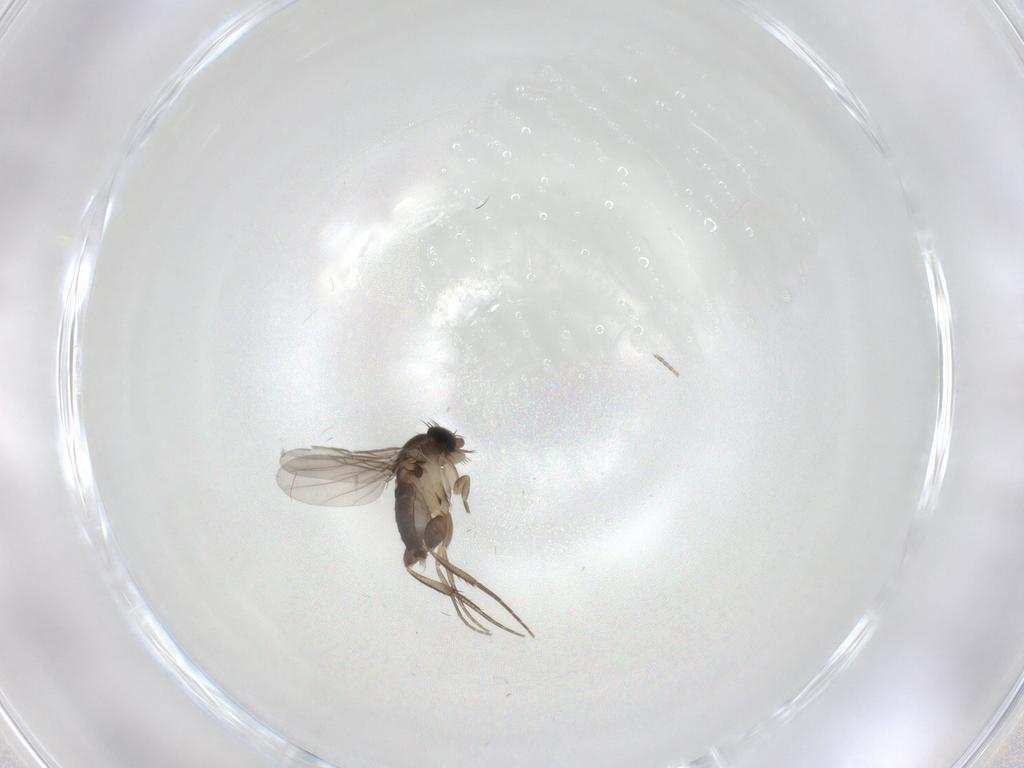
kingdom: Animalia
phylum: Arthropoda
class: Insecta
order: Diptera
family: Phoridae
